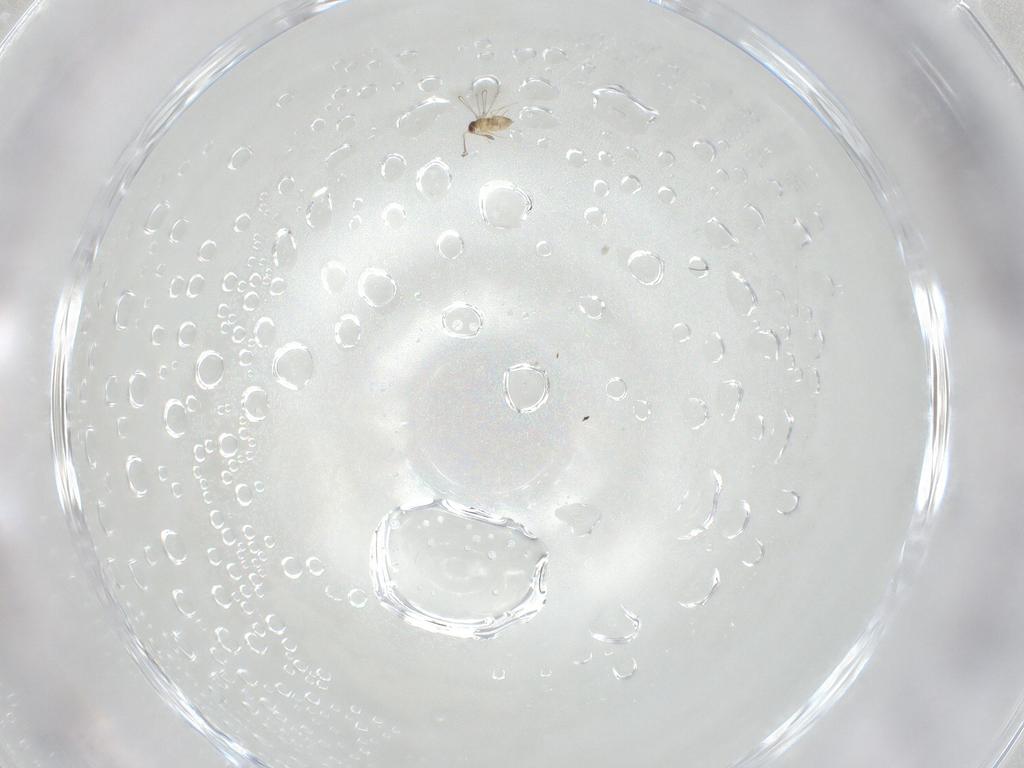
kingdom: Animalia
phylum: Arthropoda
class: Insecta
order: Hymenoptera
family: Mymaridae
